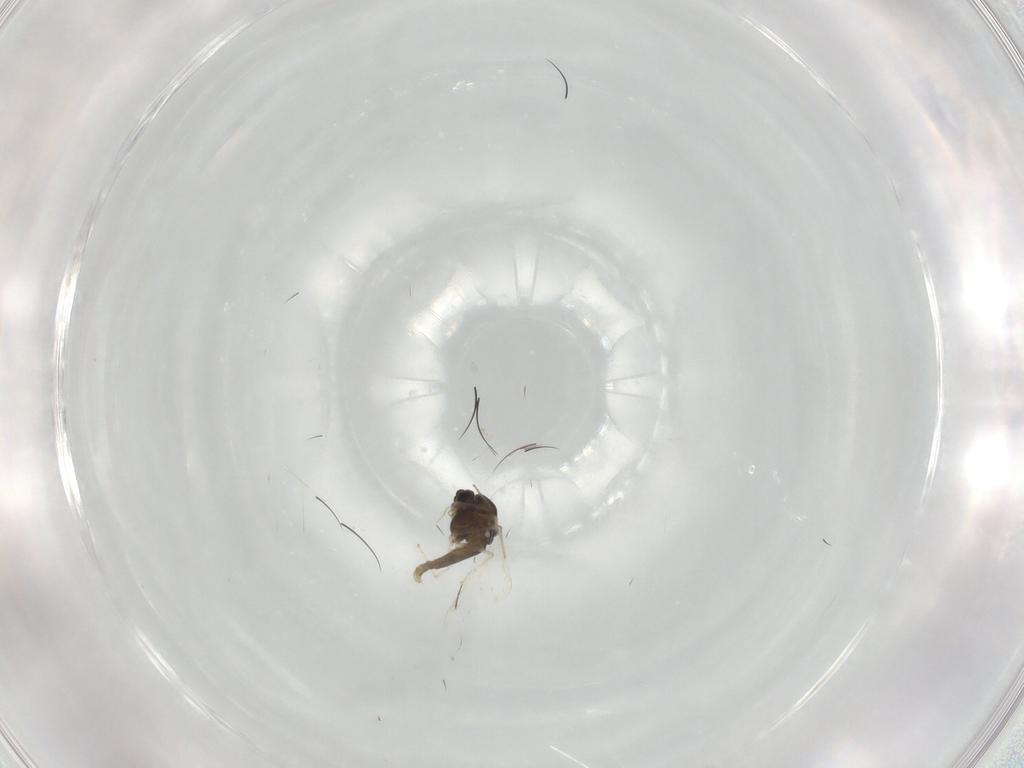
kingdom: Animalia
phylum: Arthropoda
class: Insecta
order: Diptera
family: Chironomidae
